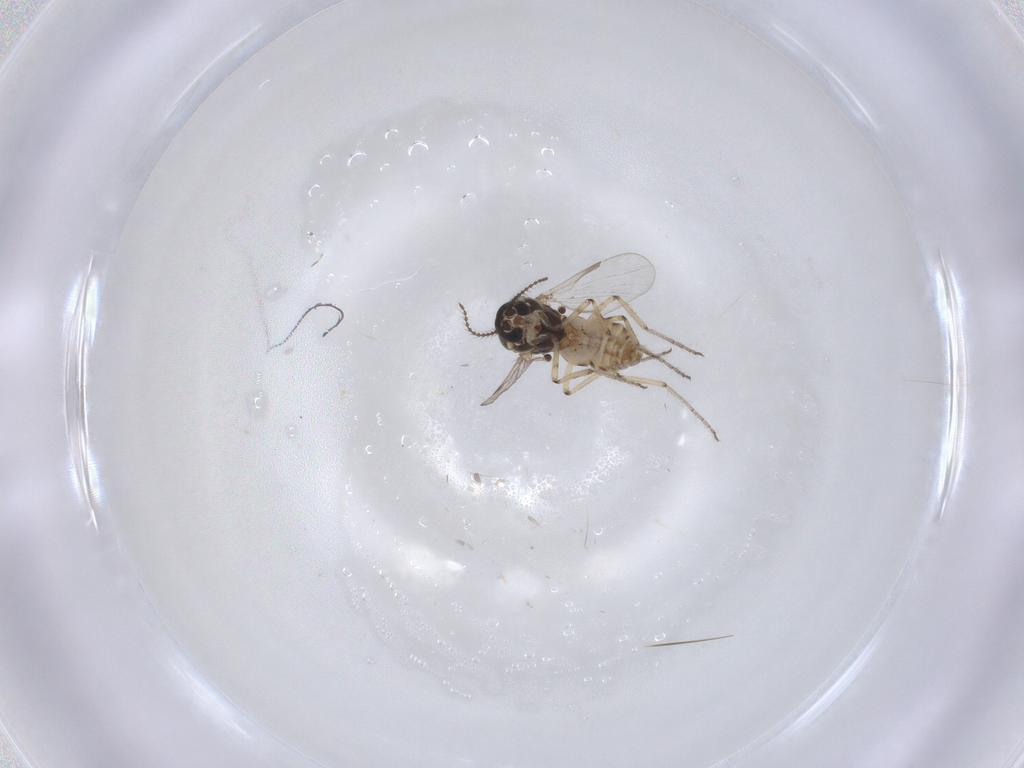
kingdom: Animalia
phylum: Arthropoda
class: Insecta
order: Diptera
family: Ceratopogonidae
